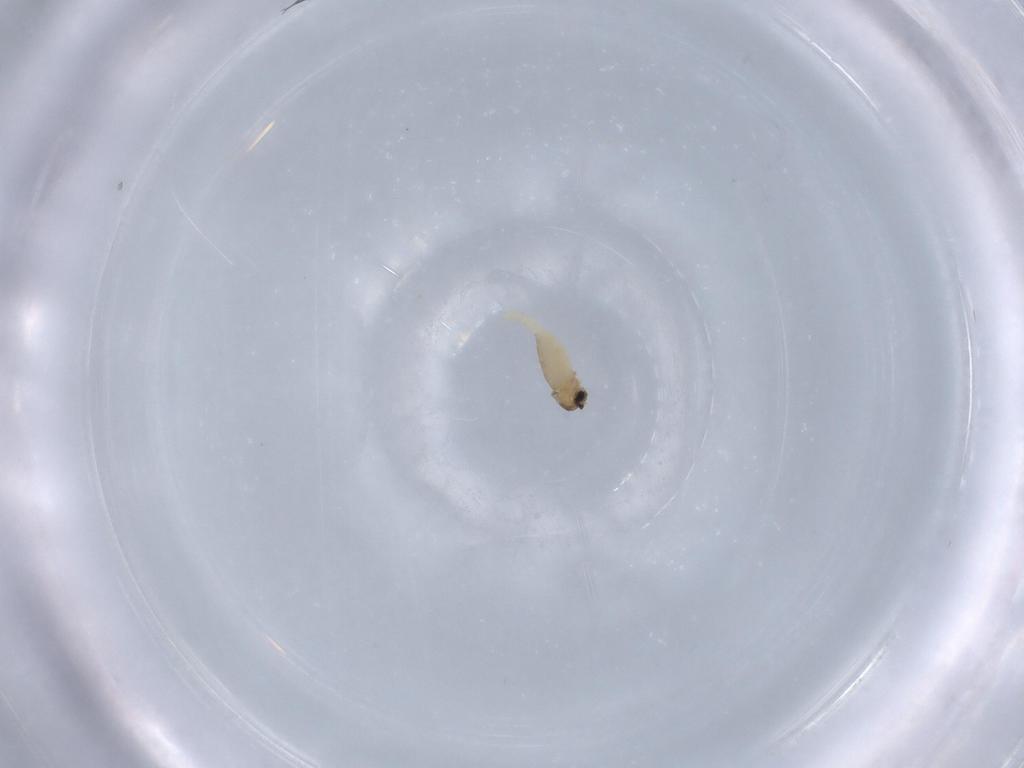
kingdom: Animalia
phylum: Arthropoda
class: Insecta
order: Diptera
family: Cecidomyiidae
